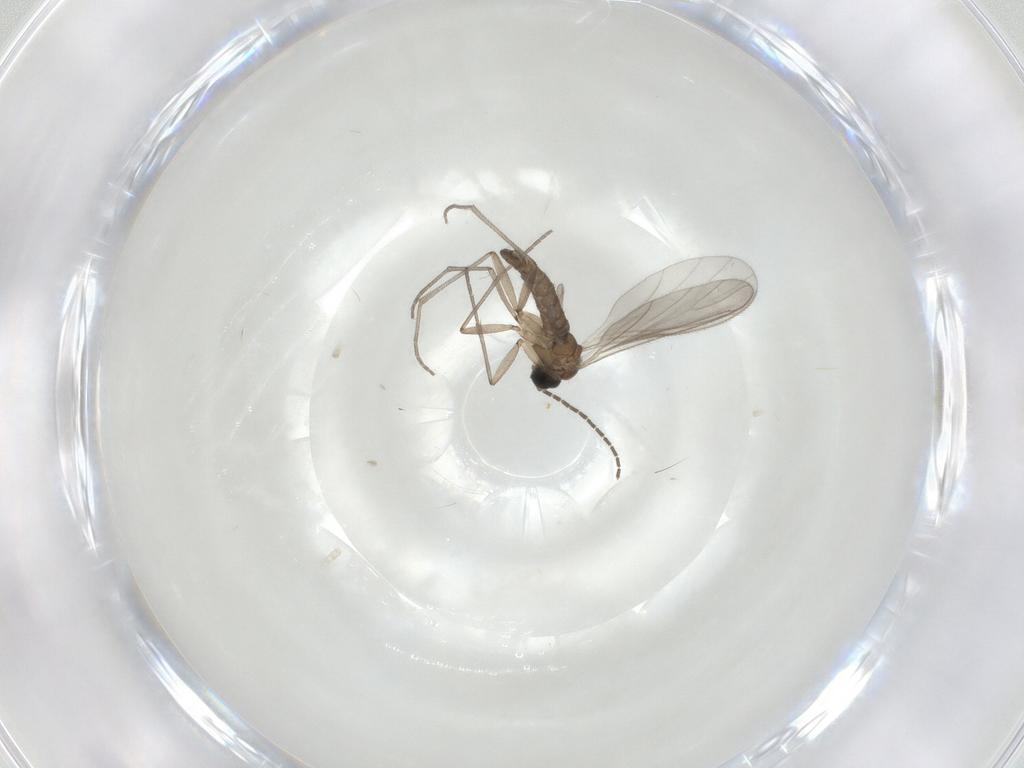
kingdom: Animalia
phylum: Arthropoda
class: Insecta
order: Diptera
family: Sciaridae
